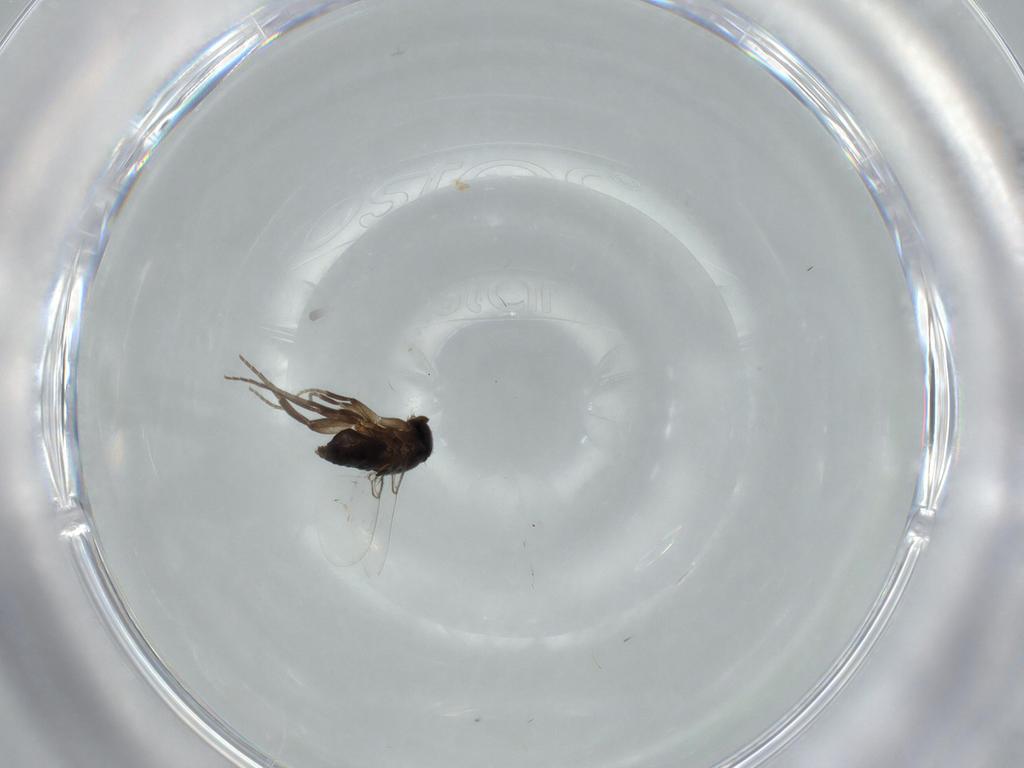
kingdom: Animalia
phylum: Arthropoda
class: Insecta
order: Diptera
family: Phoridae
